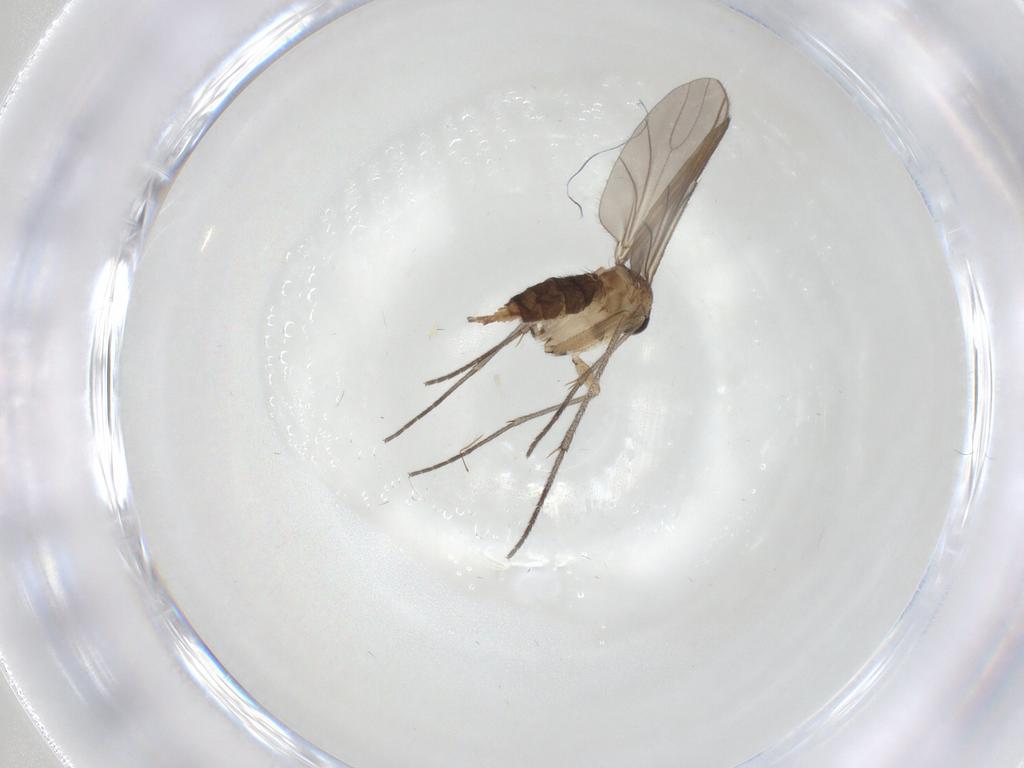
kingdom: Animalia
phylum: Arthropoda
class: Insecta
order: Diptera
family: Sciaridae
